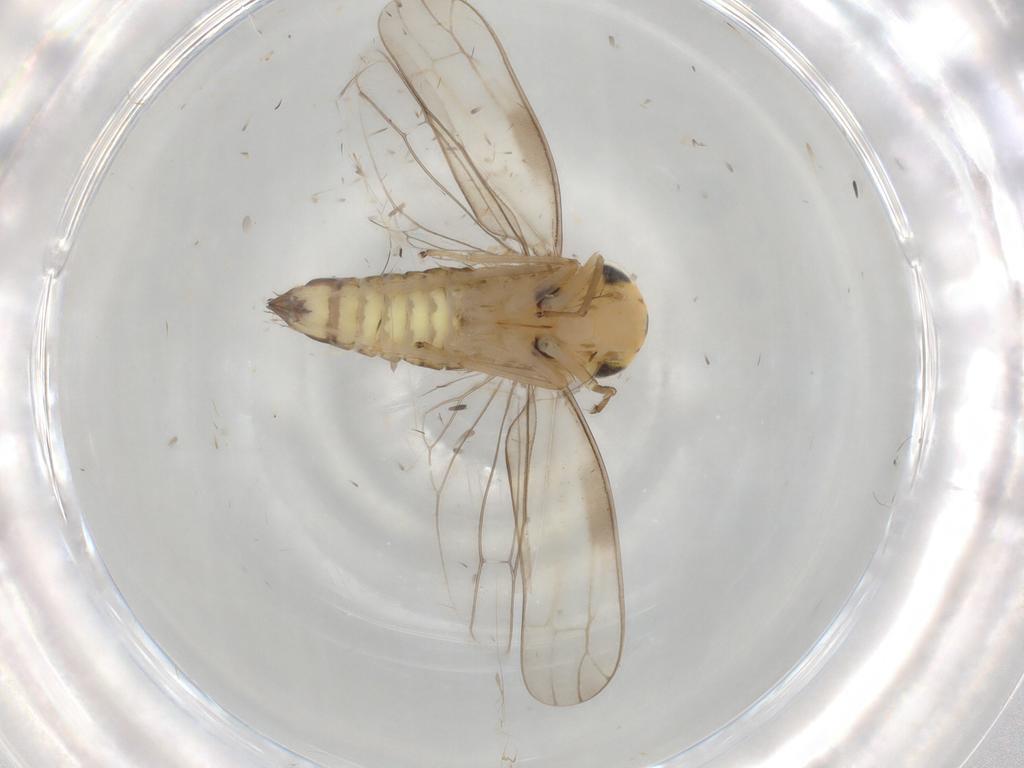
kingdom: Animalia
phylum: Arthropoda
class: Insecta
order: Hemiptera
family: Cicadellidae
